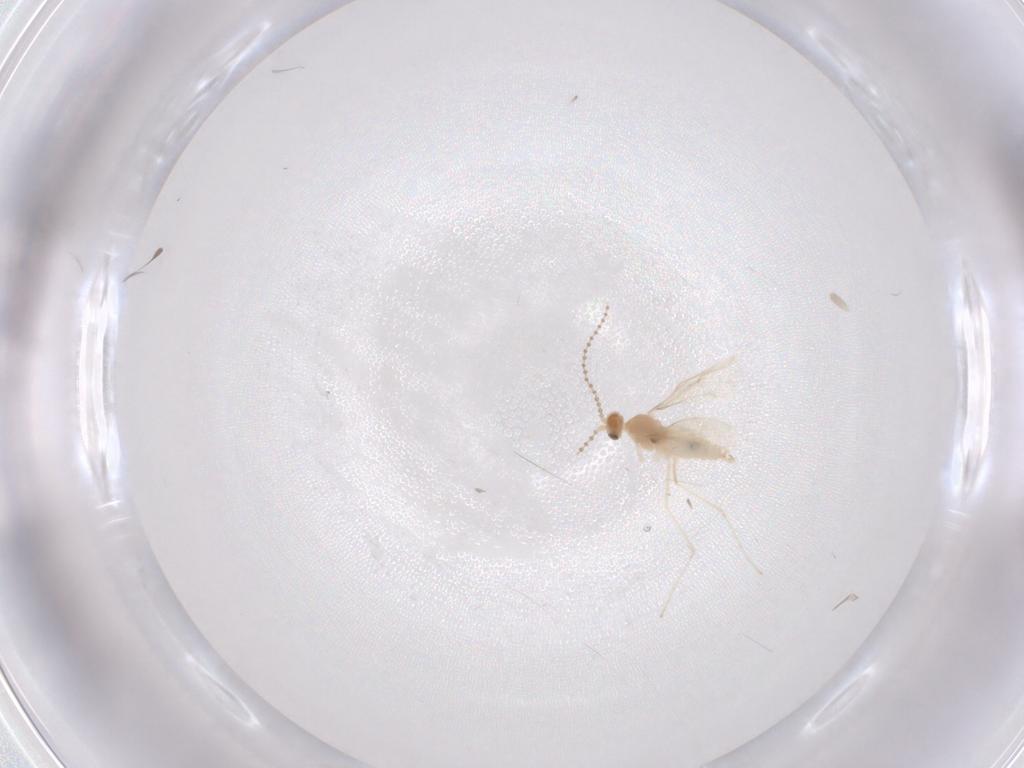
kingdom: Animalia
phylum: Arthropoda
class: Insecta
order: Diptera
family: Cecidomyiidae
